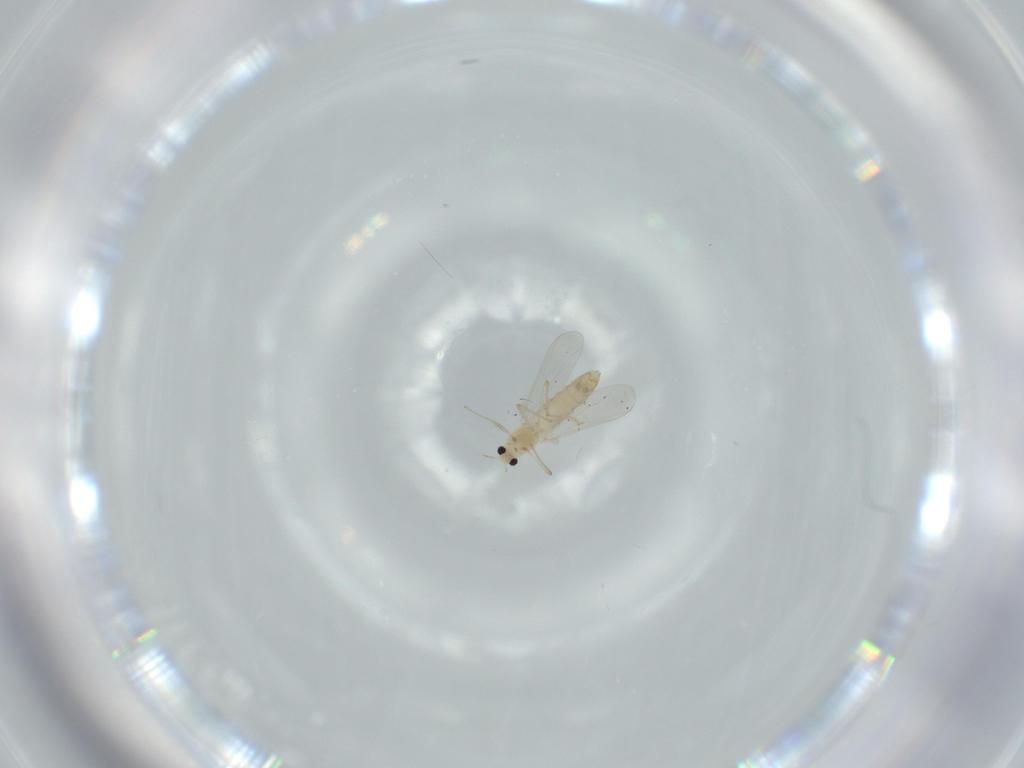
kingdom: Animalia
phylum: Arthropoda
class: Insecta
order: Diptera
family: Chironomidae
